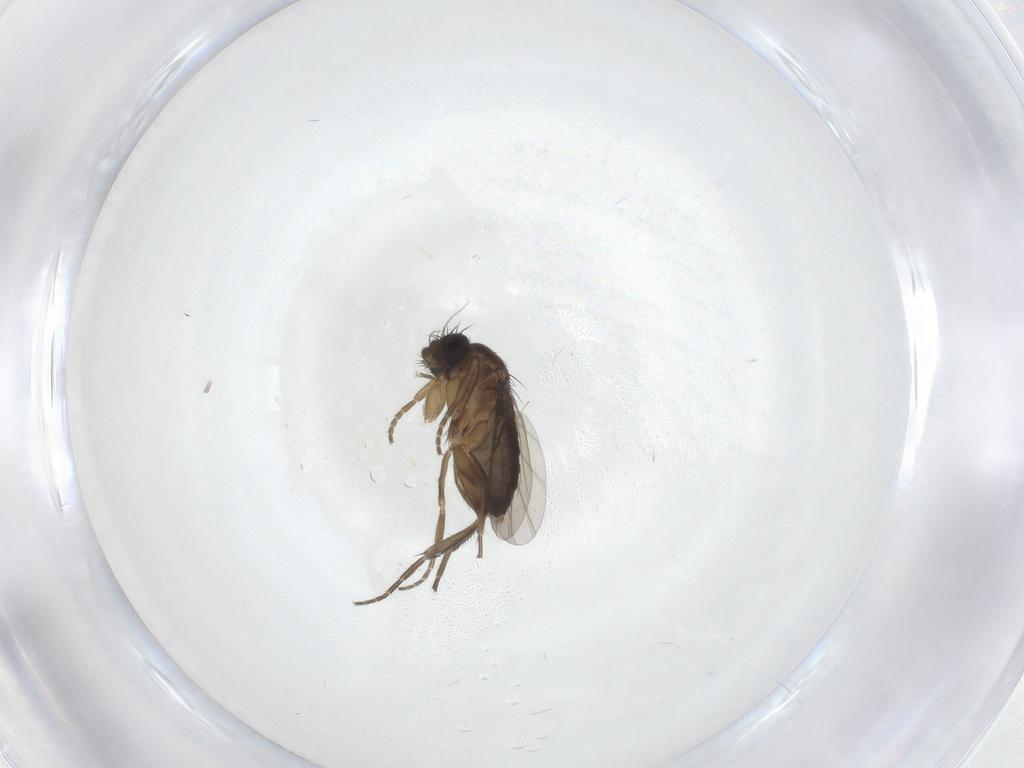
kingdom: Animalia
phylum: Arthropoda
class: Insecta
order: Diptera
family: Phoridae
